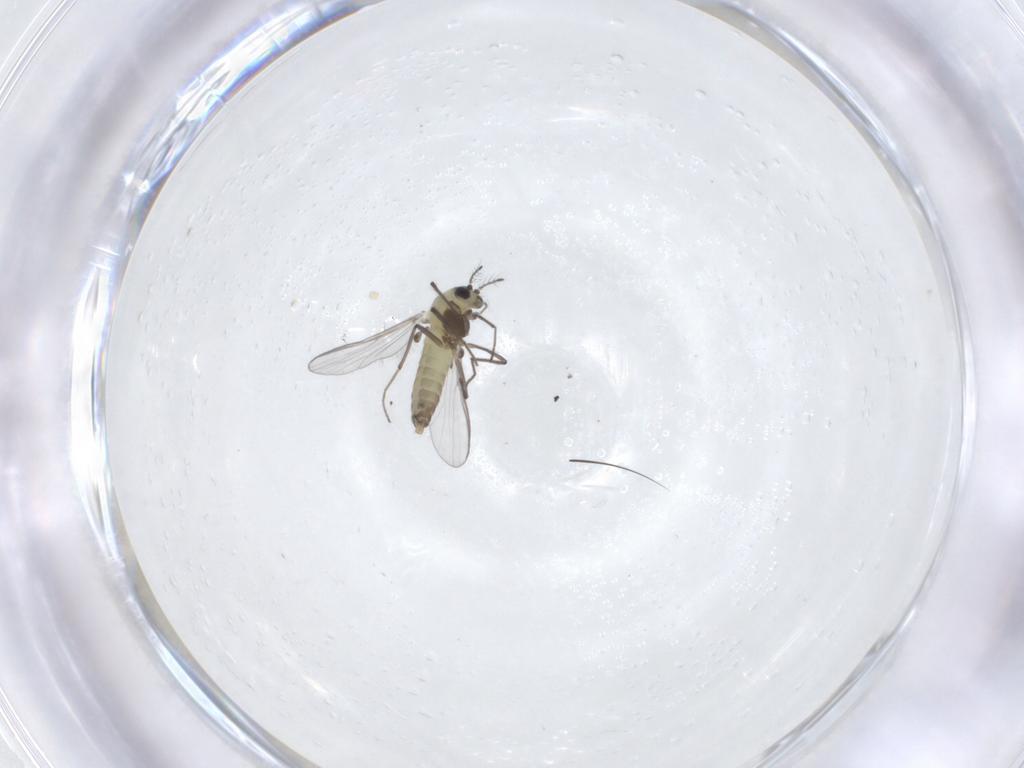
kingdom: Animalia
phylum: Arthropoda
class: Insecta
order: Diptera
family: Chironomidae
